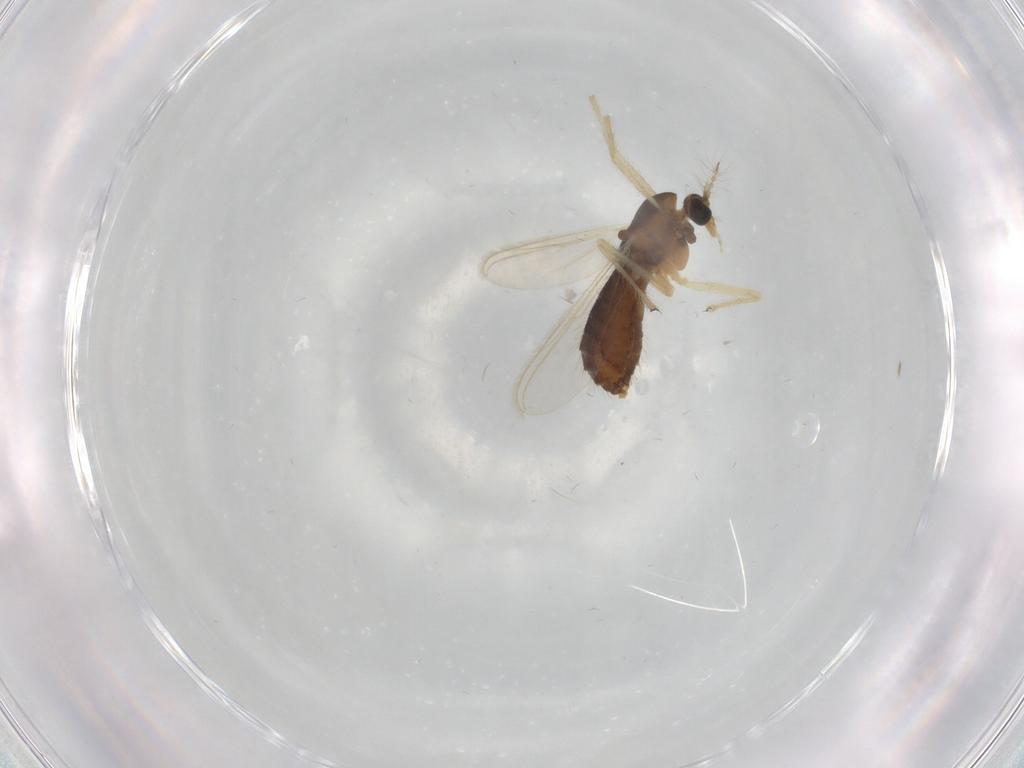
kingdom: Animalia
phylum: Arthropoda
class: Insecta
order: Diptera
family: Chironomidae
